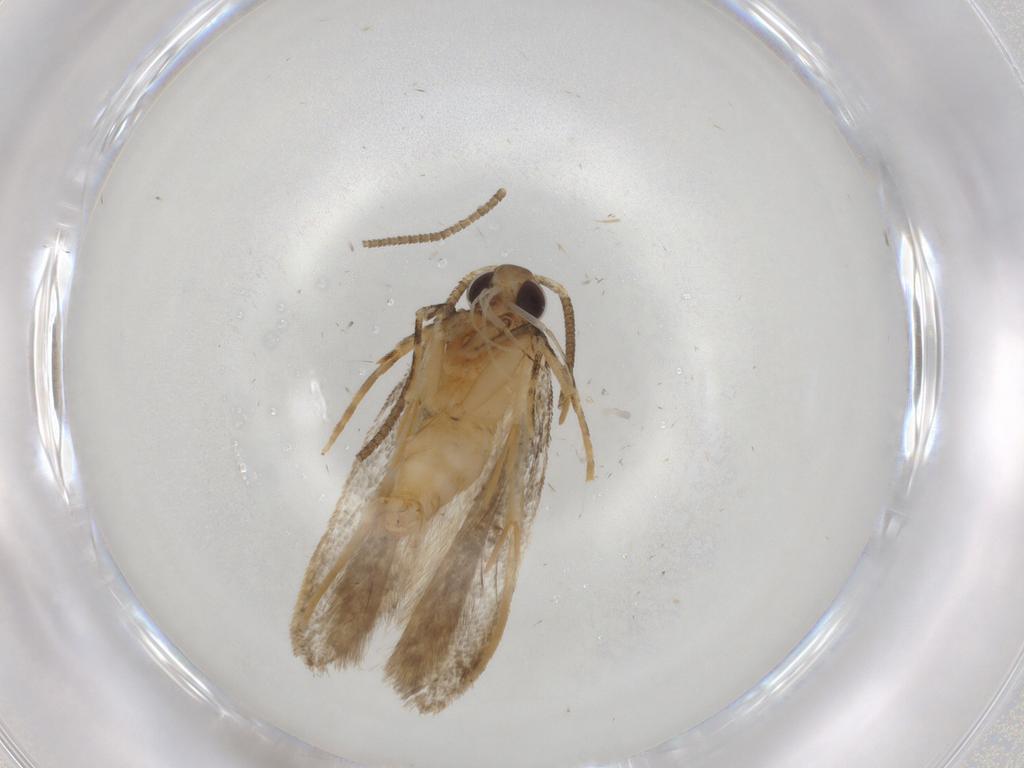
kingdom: Animalia
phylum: Arthropoda
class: Insecta
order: Lepidoptera
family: Autostichidae
